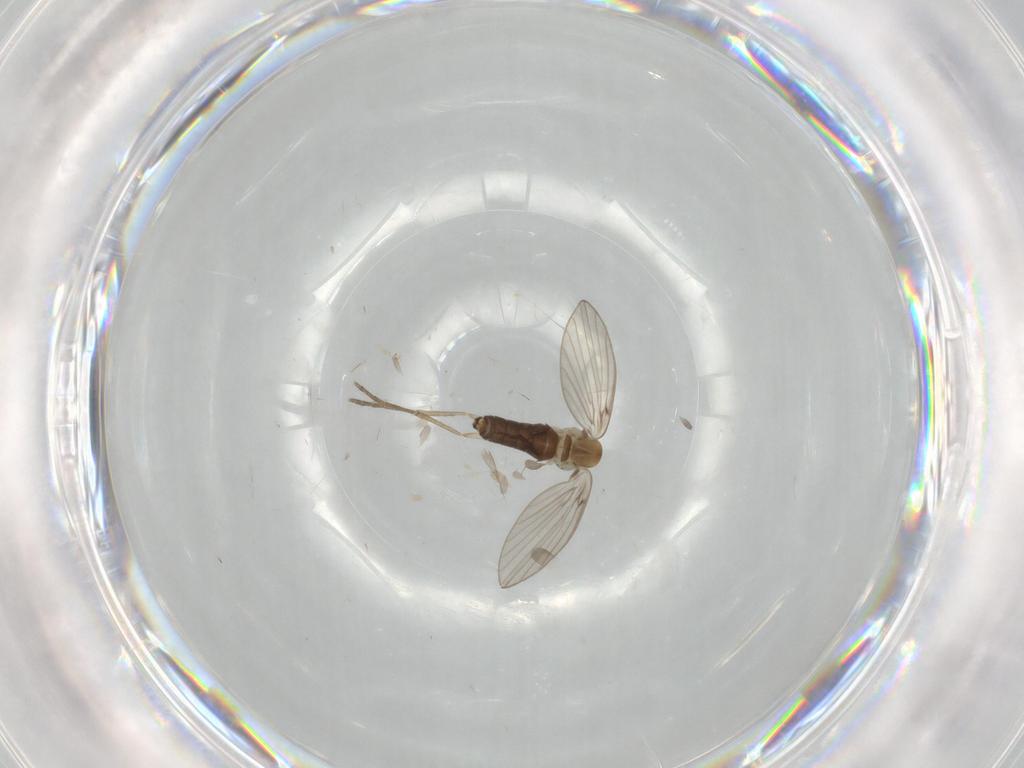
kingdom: Animalia
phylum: Arthropoda
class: Insecta
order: Diptera
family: Psychodidae
